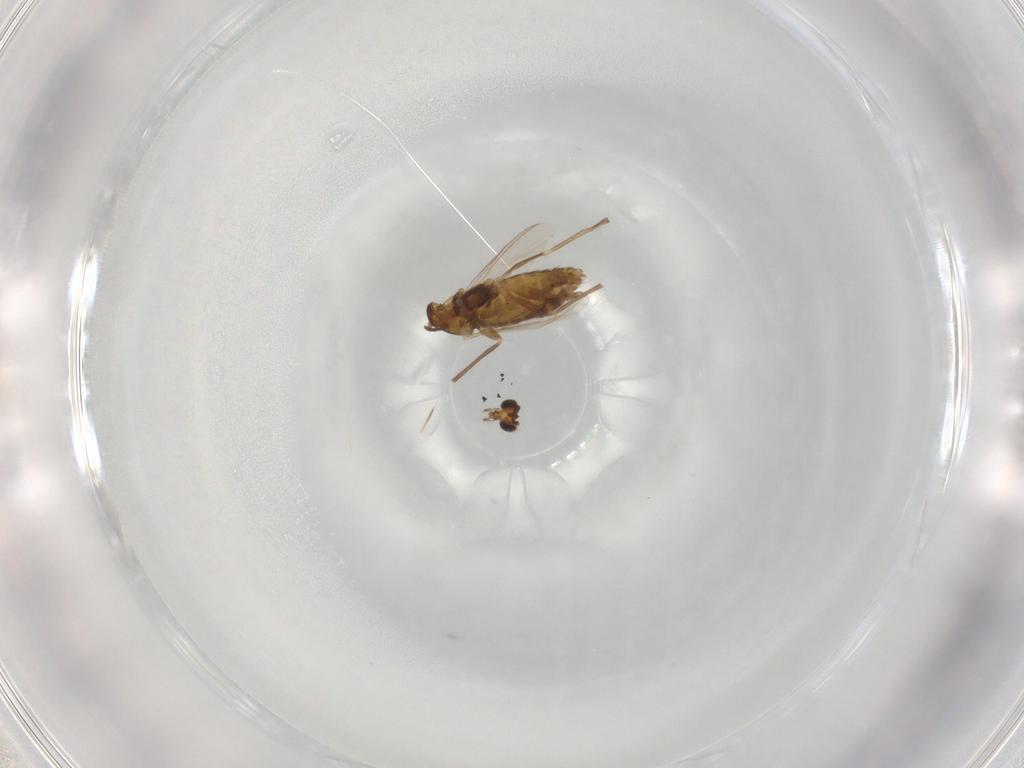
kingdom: Animalia
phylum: Arthropoda
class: Insecta
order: Diptera
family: Chironomidae
